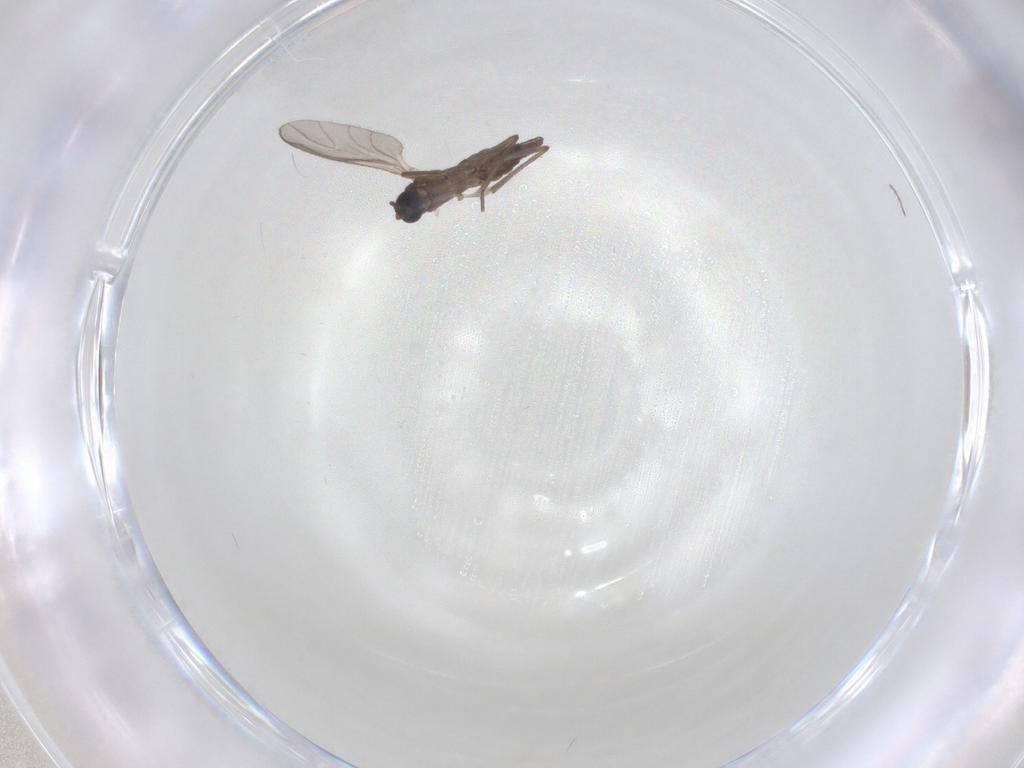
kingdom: Animalia
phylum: Arthropoda
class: Insecta
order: Diptera
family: Sciaridae
